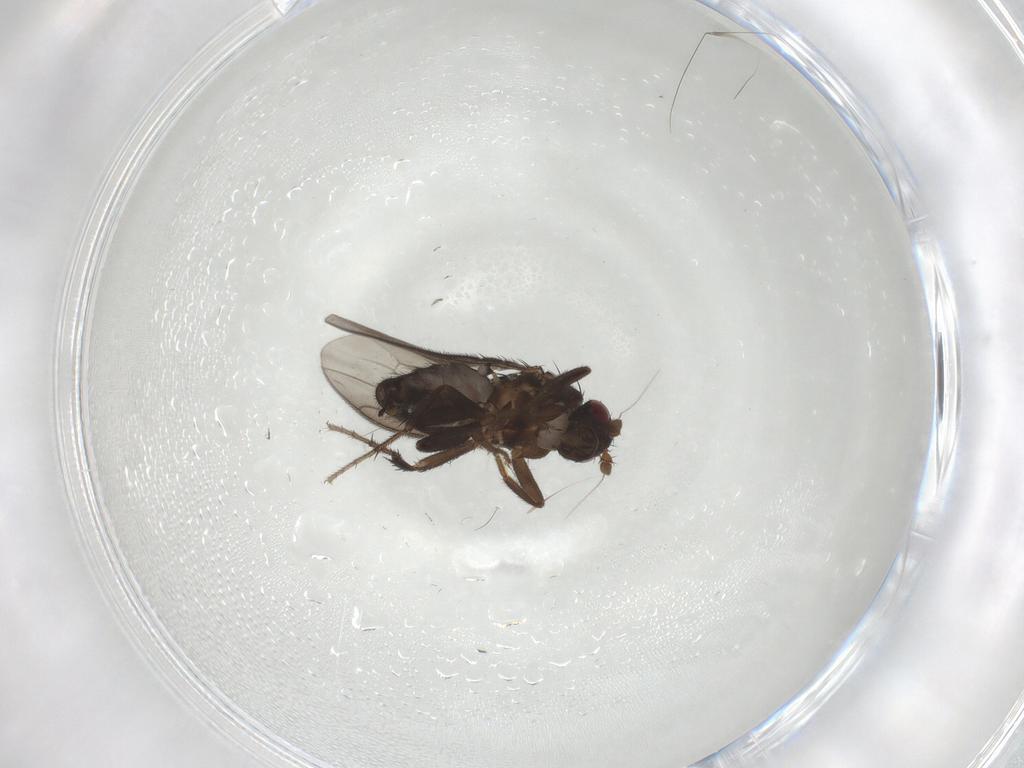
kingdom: Animalia
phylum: Arthropoda
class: Insecta
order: Diptera
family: Sphaeroceridae
